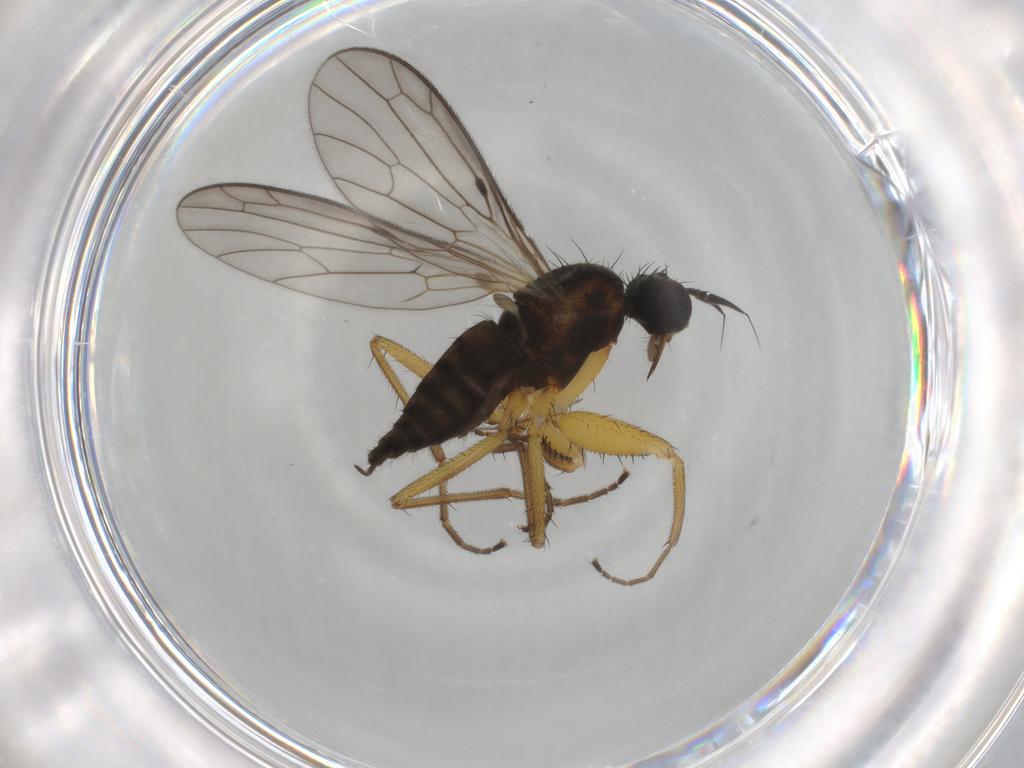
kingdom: Animalia
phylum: Arthropoda
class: Insecta
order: Diptera
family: Empididae
